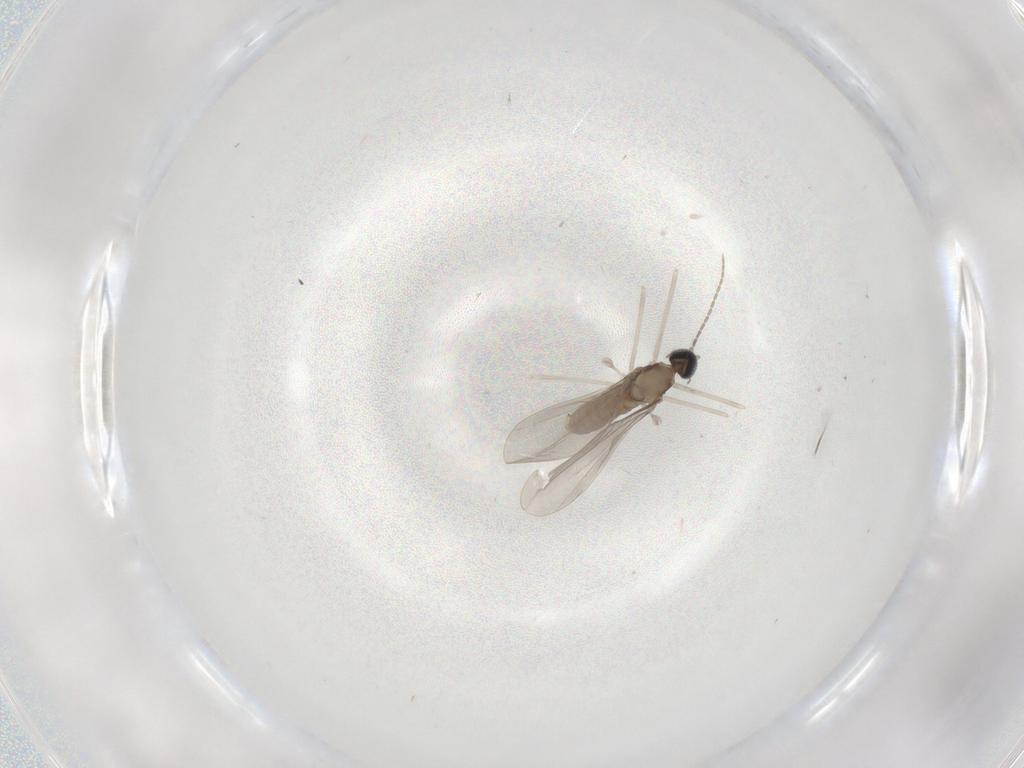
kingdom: Animalia
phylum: Arthropoda
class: Insecta
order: Diptera
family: Cecidomyiidae
